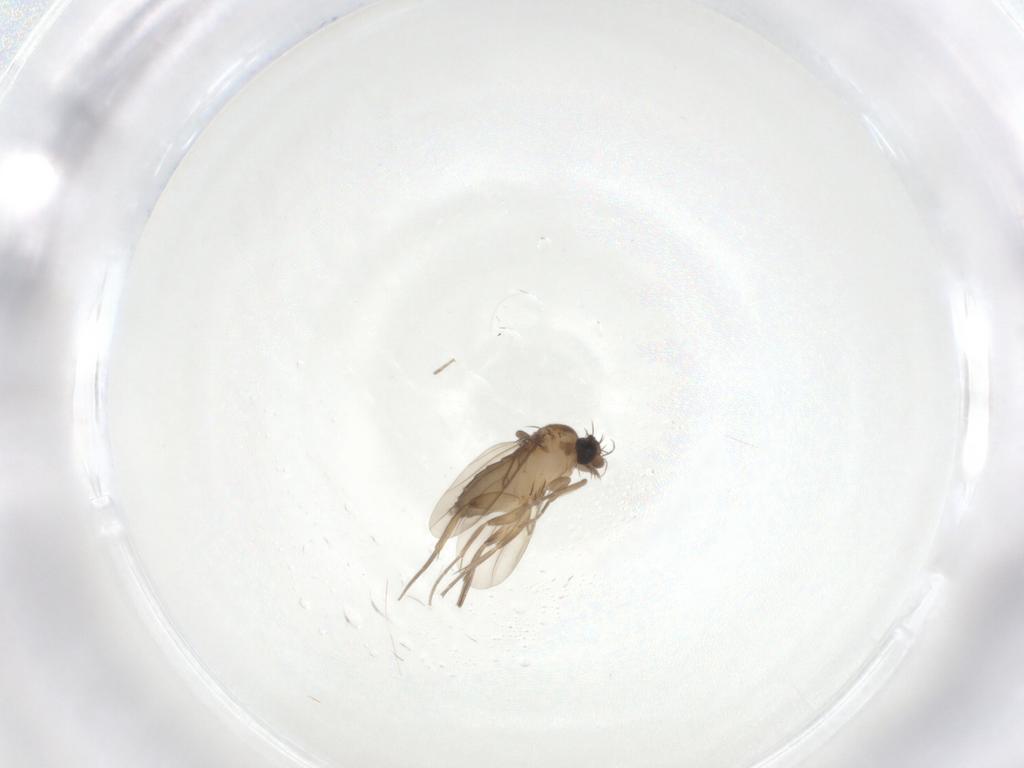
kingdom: Animalia
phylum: Arthropoda
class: Insecta
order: Diptera
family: Phoridae
